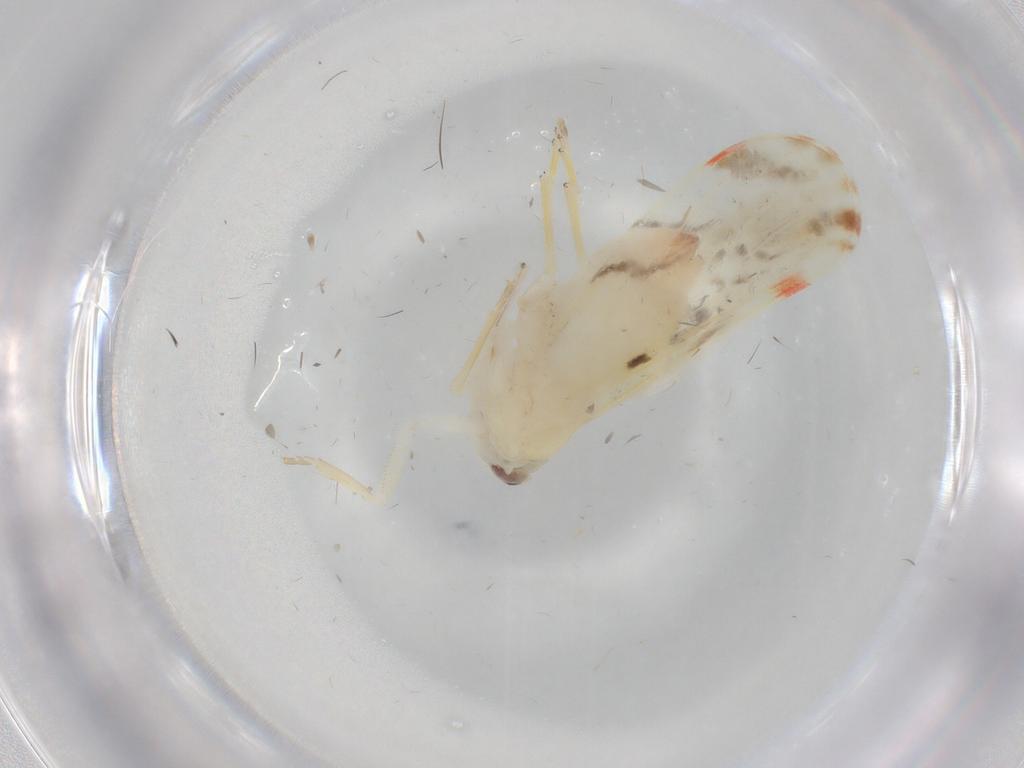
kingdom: Animalia
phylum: Arthropoda
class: Insecta
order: Hemiptera
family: Derbidae
